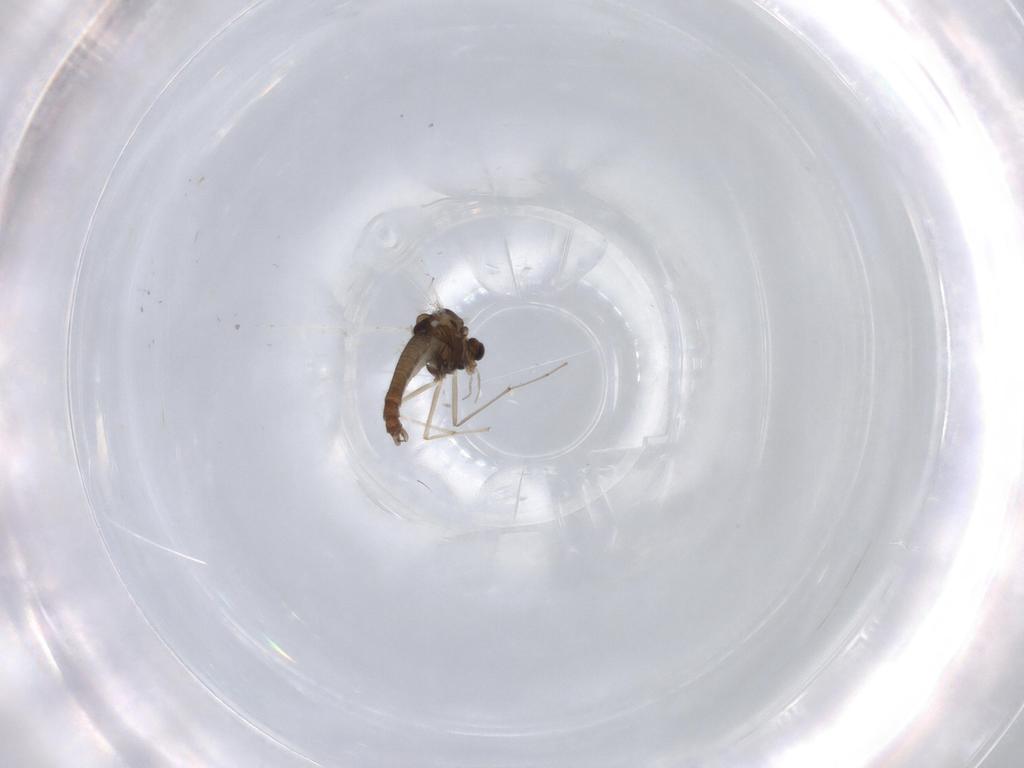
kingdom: Animalia
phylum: Arthropoda
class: Insecta
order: Diptera
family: Chironomidae
